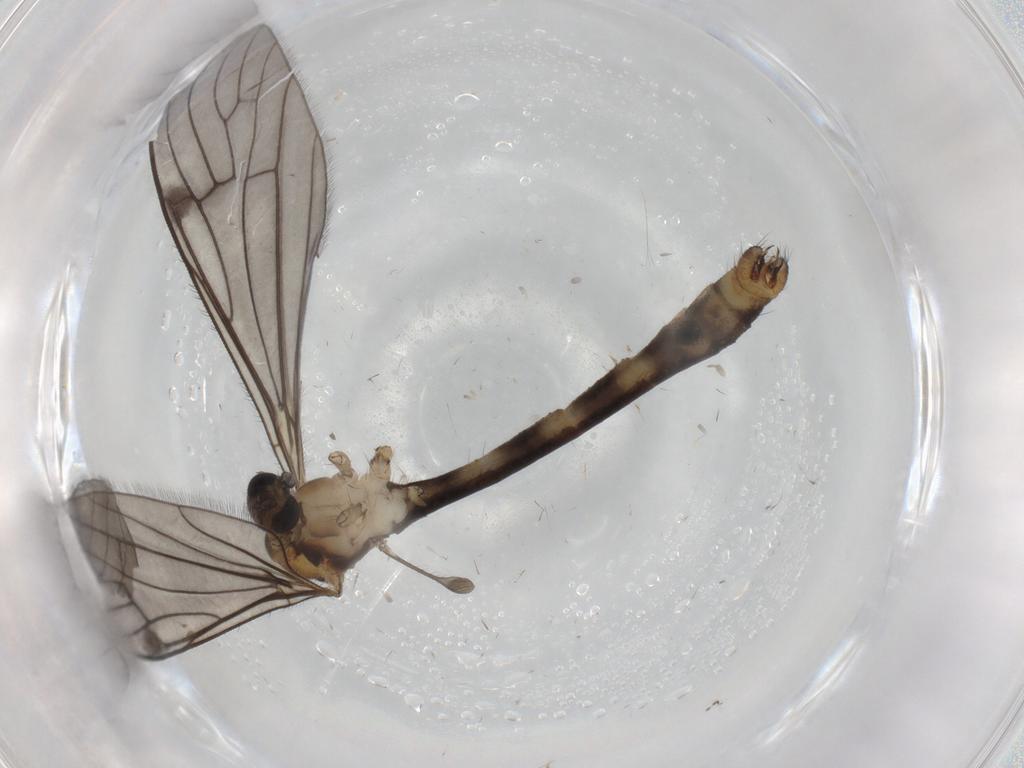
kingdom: Animalia
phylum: Arthropoda
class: Insecta
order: Diptera
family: Limoniidae
